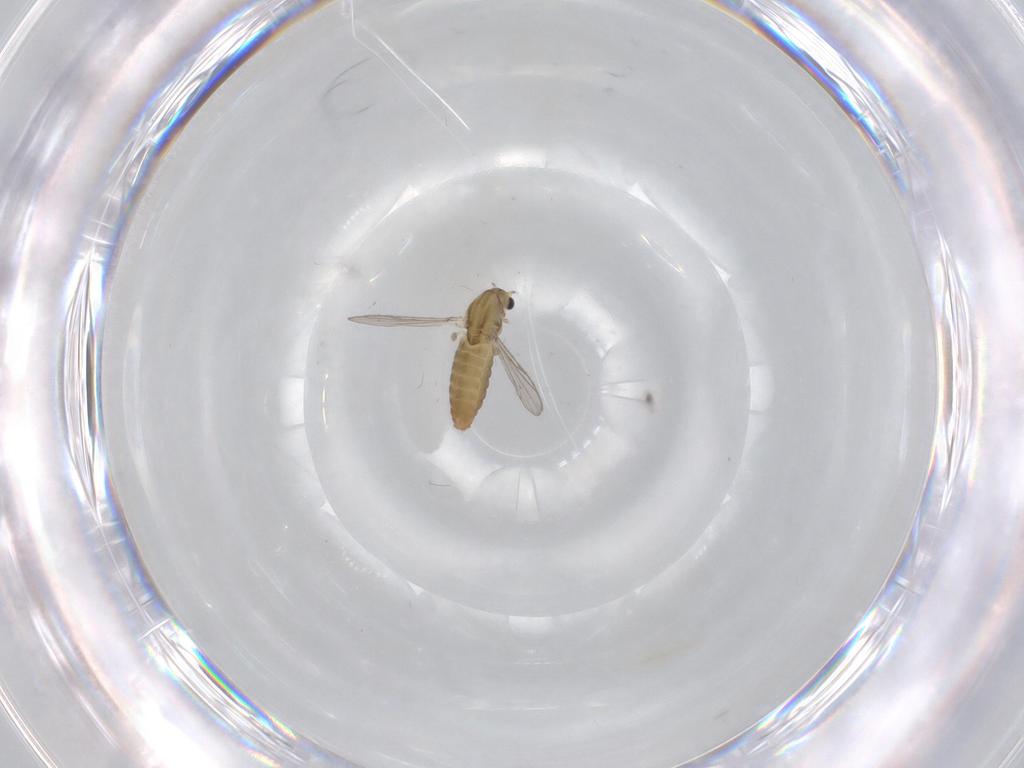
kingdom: Animalia
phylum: Arthropoda
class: Insecta
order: Diptera
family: Chironomidae
